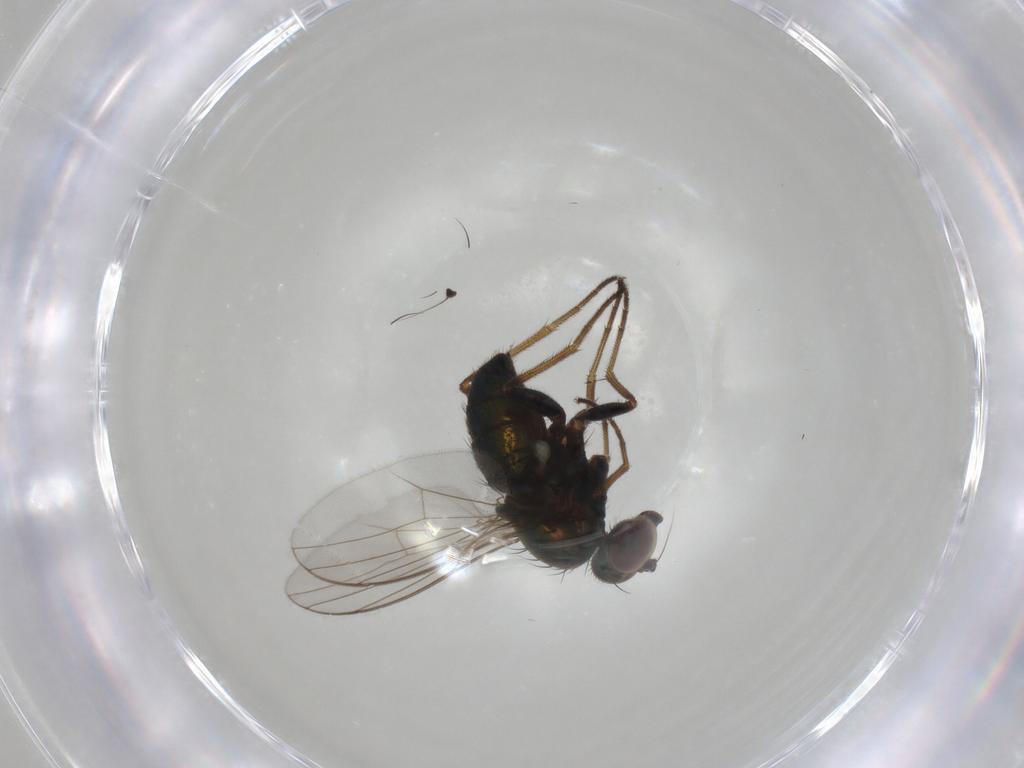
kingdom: Animalia
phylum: Arthropoda
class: Insecta
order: Diptera
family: Dolichopodidae
